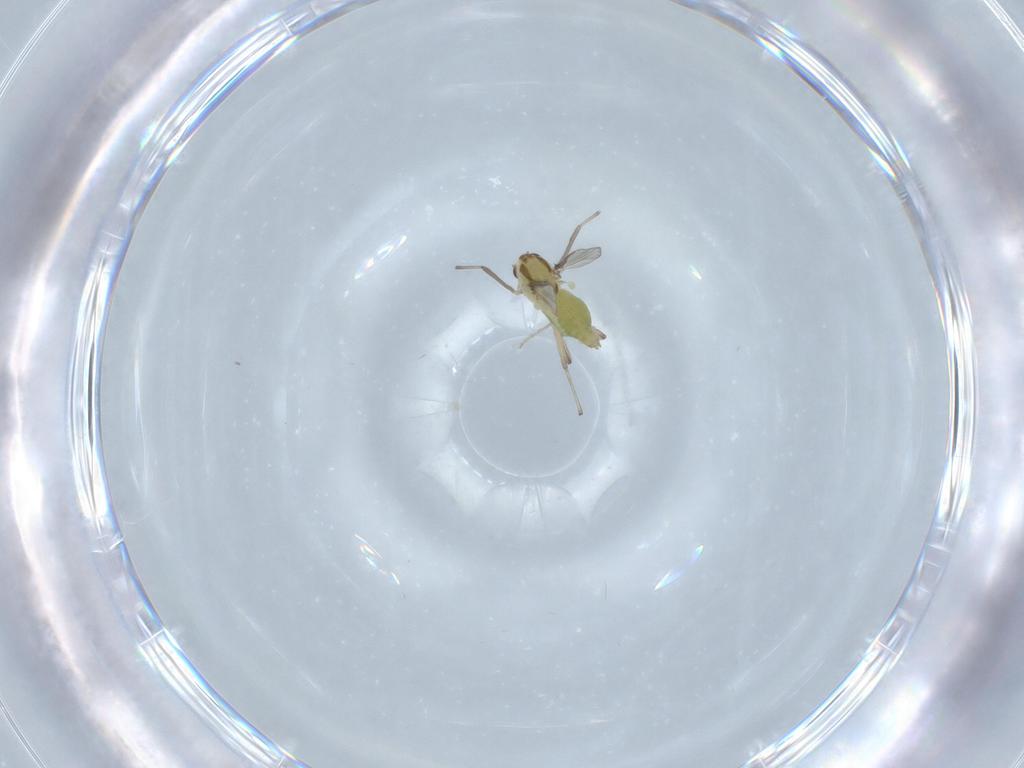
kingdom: Animalia
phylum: Arthropoda
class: Insecta
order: Diptera
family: Chironomidae
